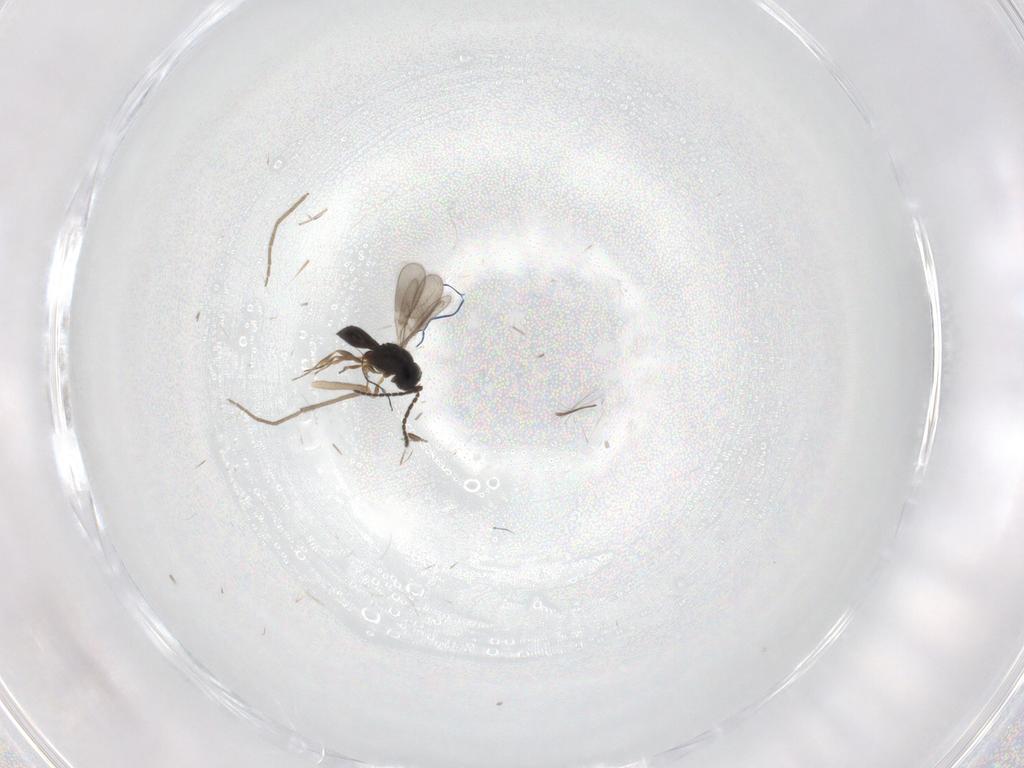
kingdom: Animalia
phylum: Arthropoda
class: Insecta
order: Hymenoptera
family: Scelionidae
